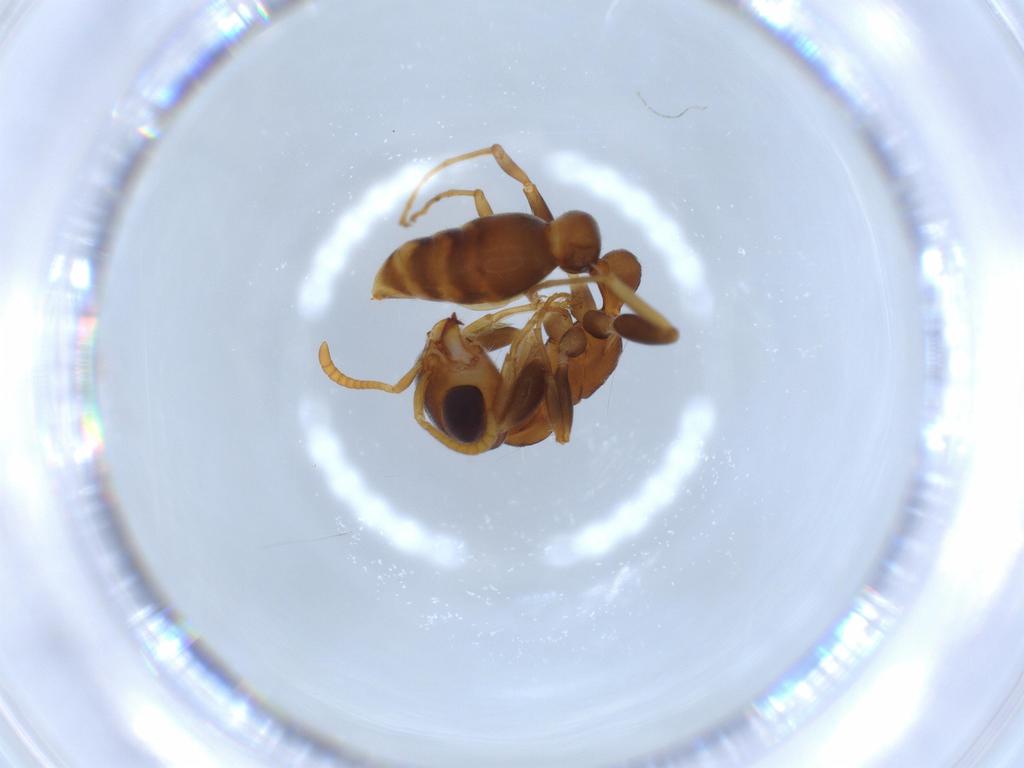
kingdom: Animalia
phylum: Arthropoda
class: Insecta
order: Hymenoptera
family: Formicidae
